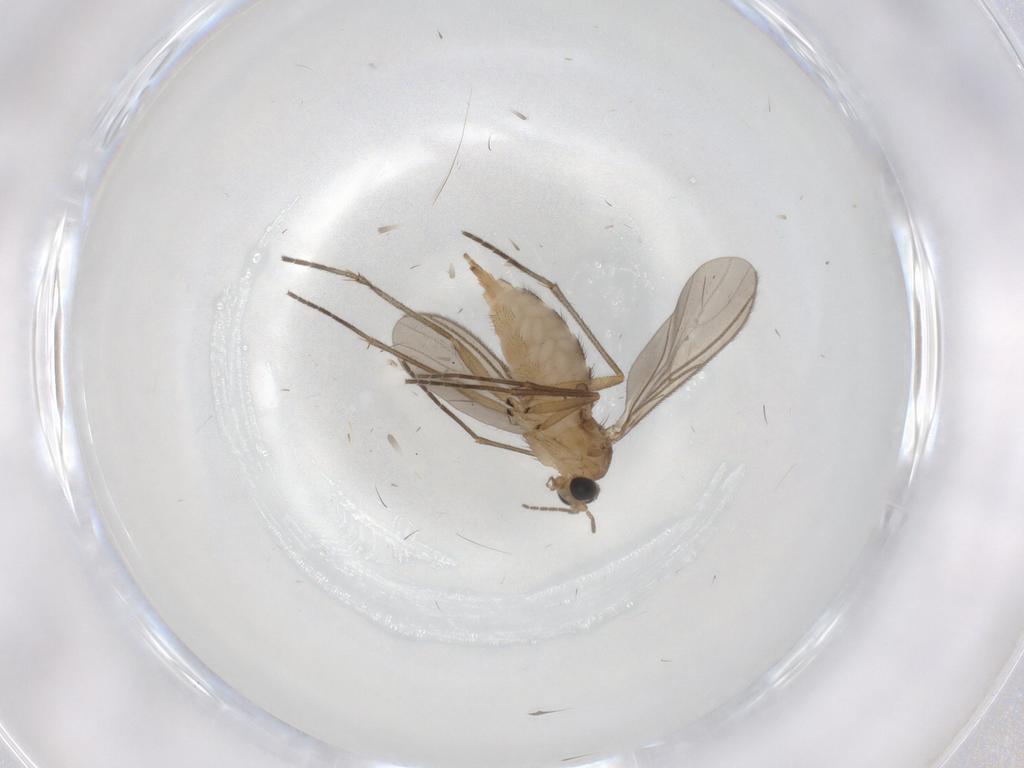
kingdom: Animalia
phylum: Arthropoda
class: Insecta
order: Diptera
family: Sciaridae
